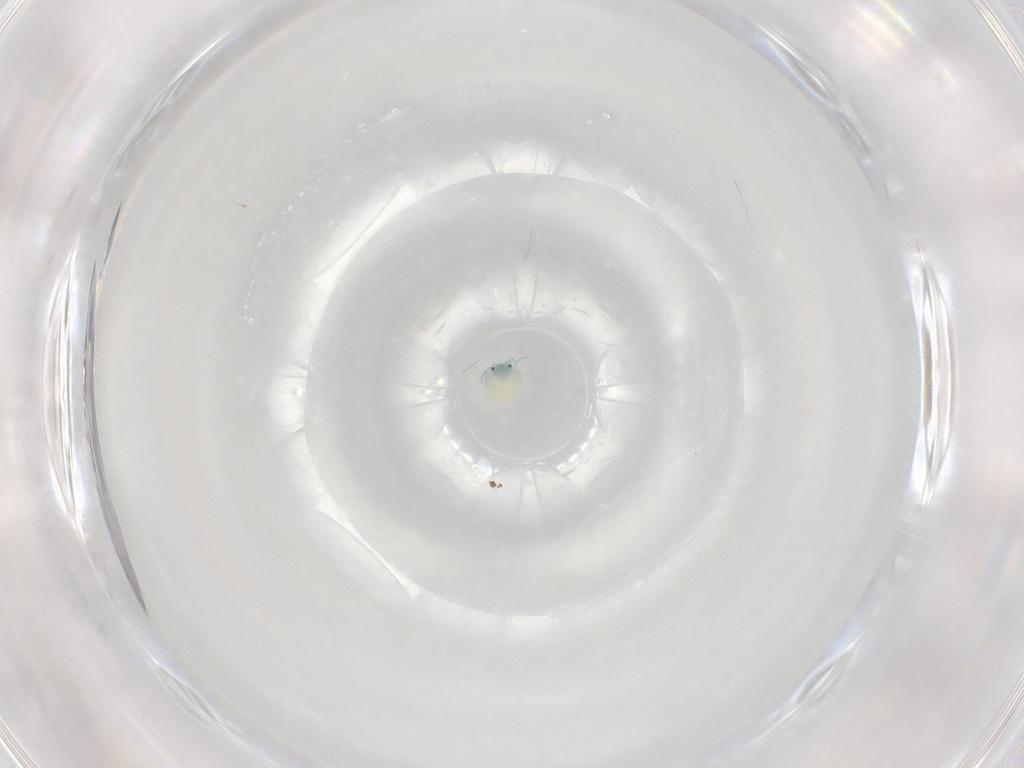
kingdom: Animalia
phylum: Arthropoda
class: Arachnida
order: Trombidiformes
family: Arrenuridae
